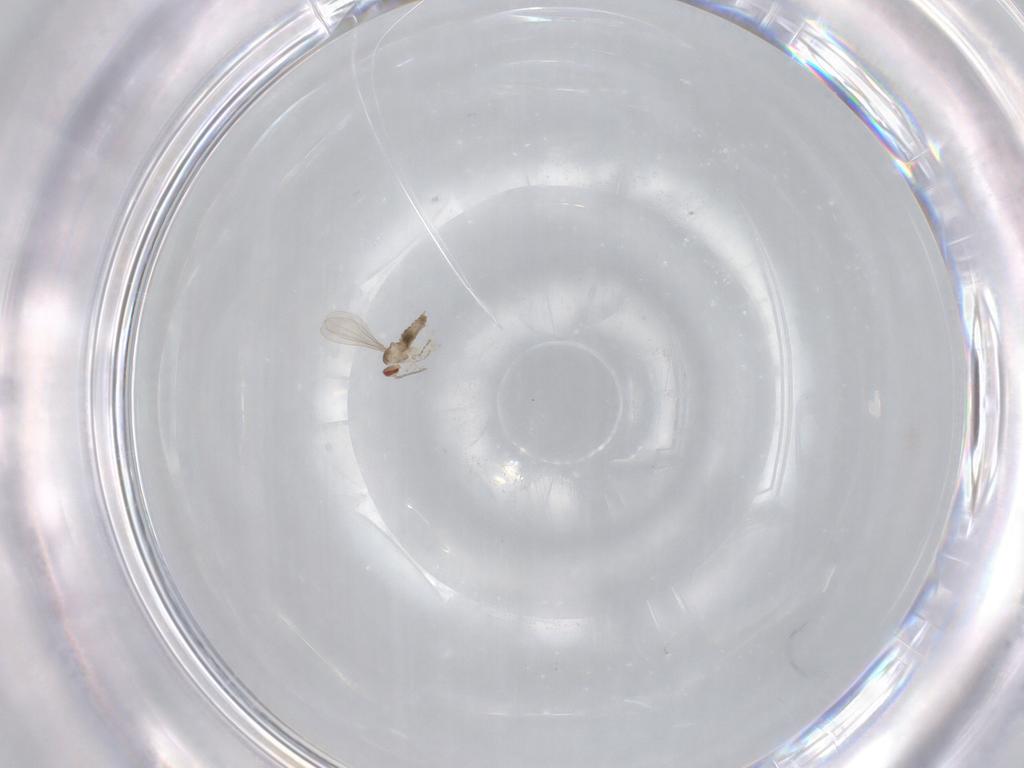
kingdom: Animalia
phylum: Arthropoda
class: Insecta
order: Diptera
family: Cecidomyiidae
